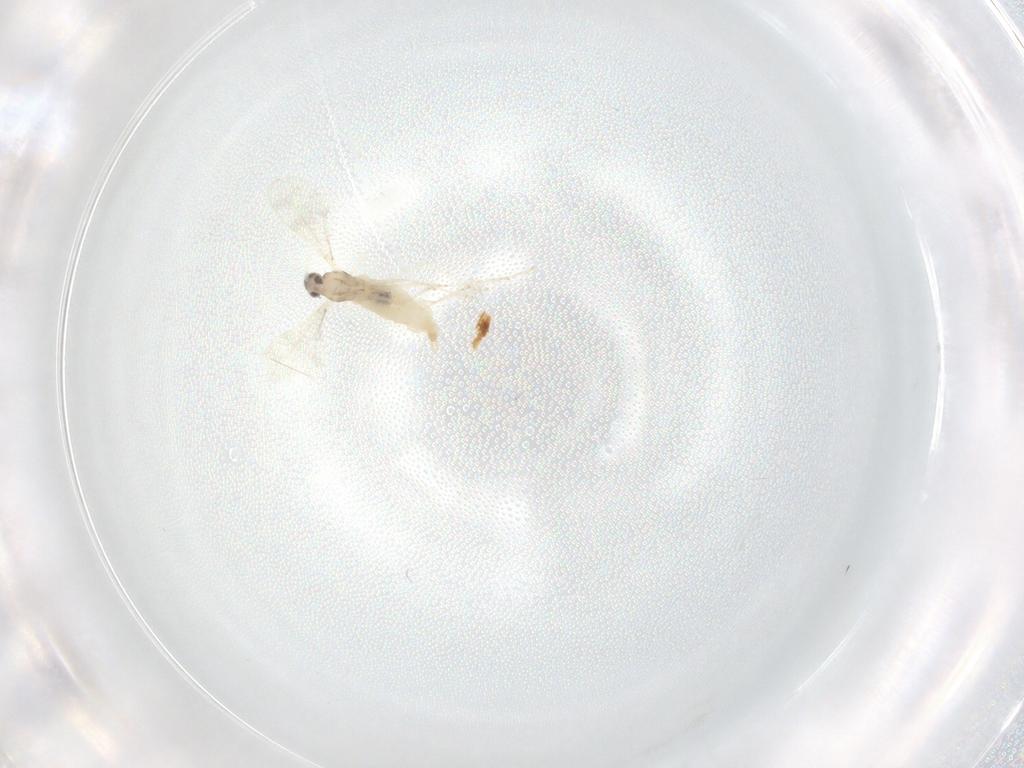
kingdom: Animalia
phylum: Arthropoda
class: Insecta
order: Diptera
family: Cecidomyiidae
